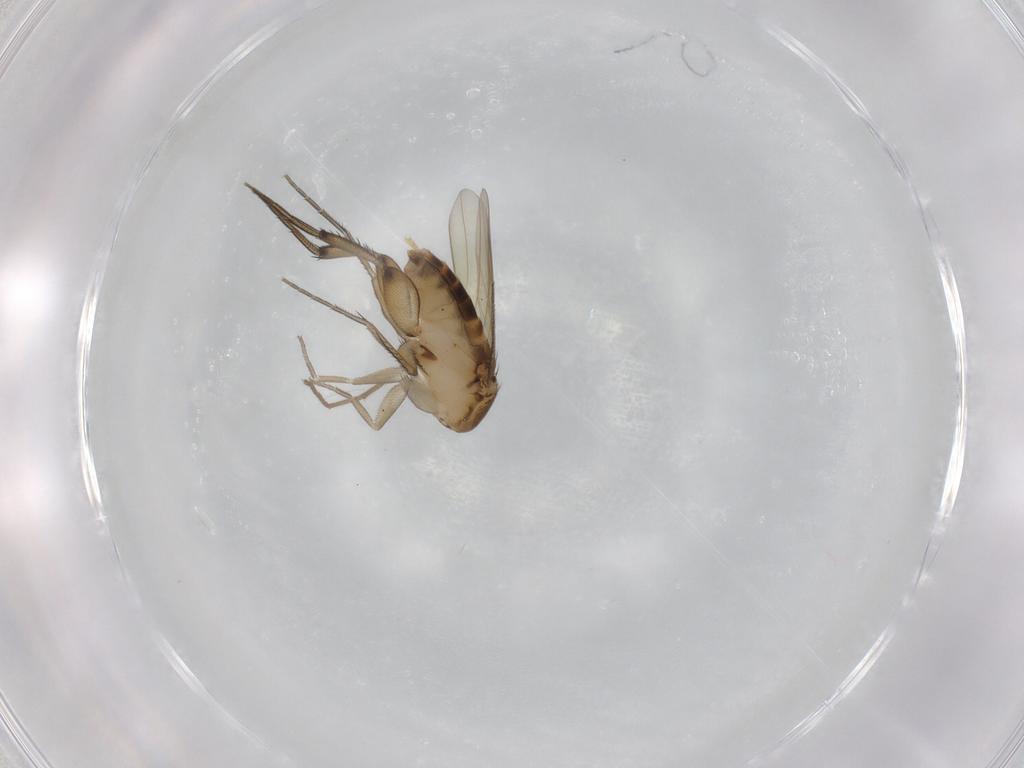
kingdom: Animalia
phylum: Arthropoda
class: Insecta
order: Diptera
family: Phoridae
